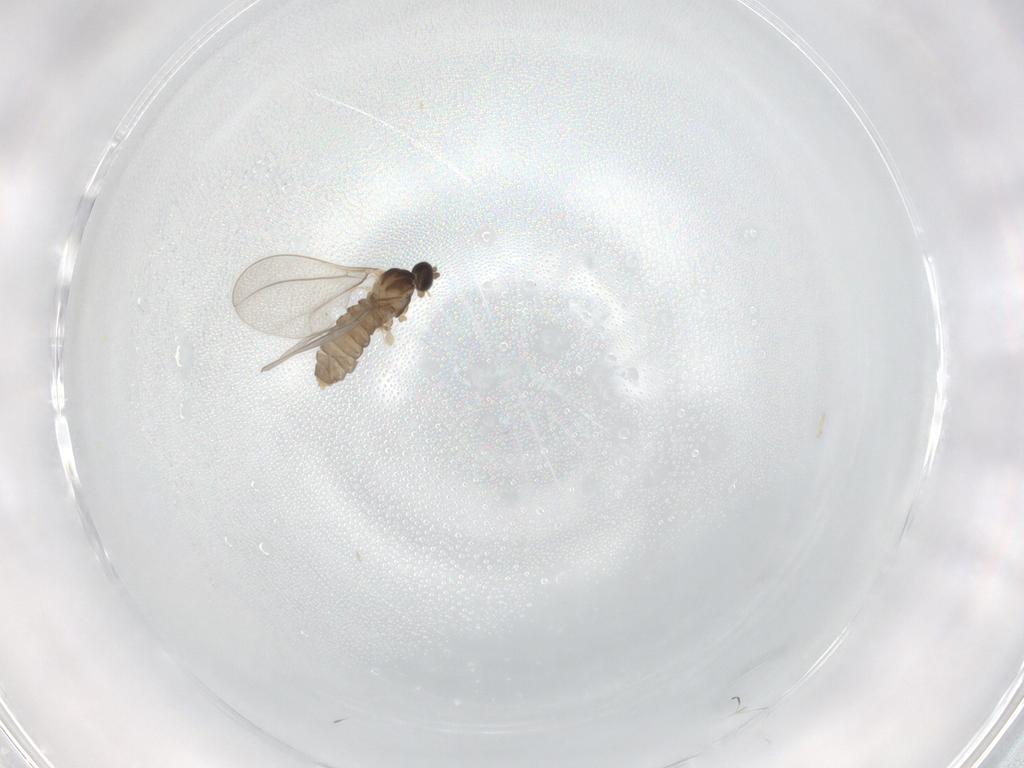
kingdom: Animalia
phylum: Arthropoda
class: Insecta
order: Diptera
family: Ceratopogonidae
